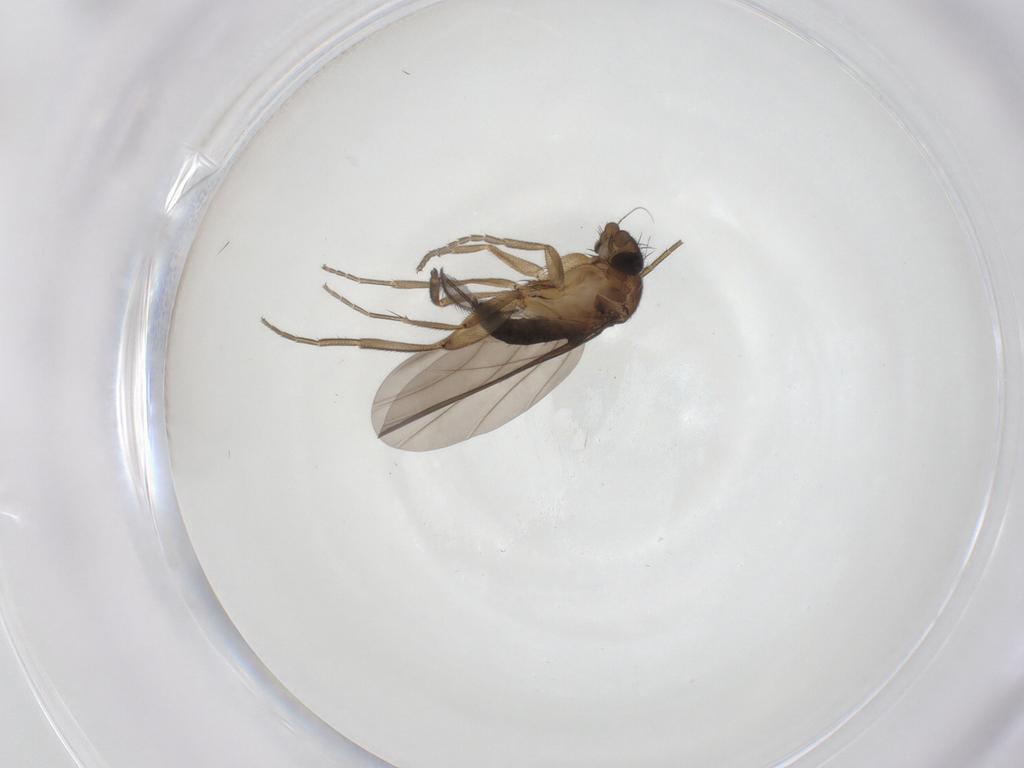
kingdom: Animalia
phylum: Arthropoda
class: Insecta
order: Diptera
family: Phoridae
